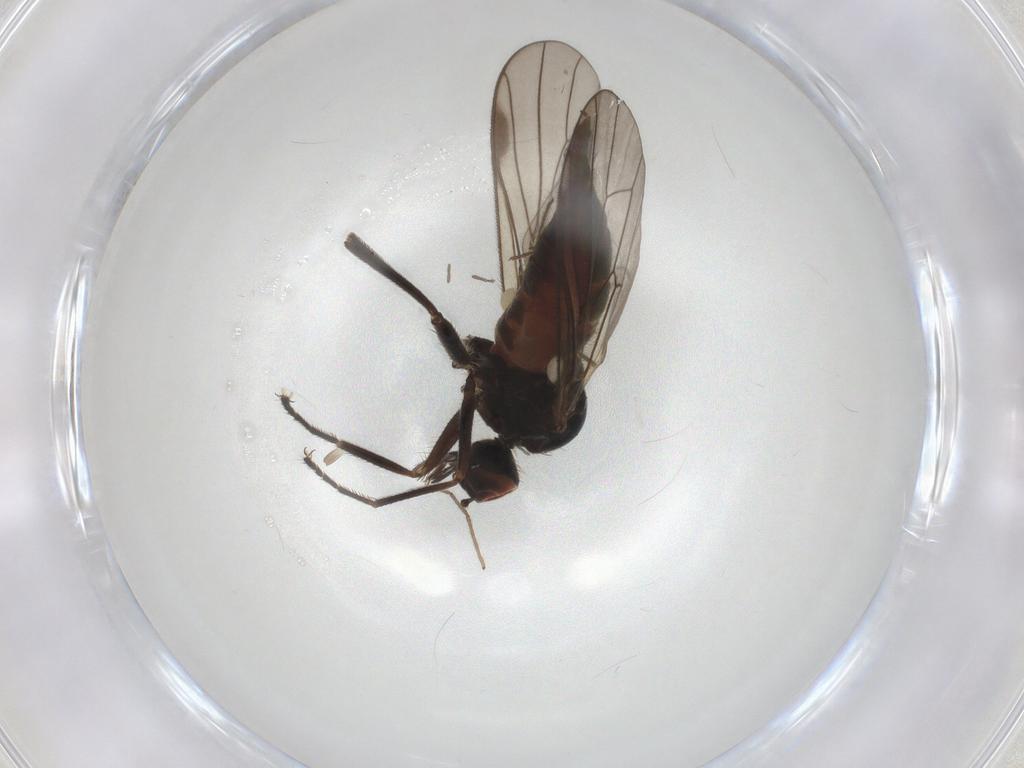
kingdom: Animalia
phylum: Arthropoda
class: Insecta
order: Diptera
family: Hybotidae
